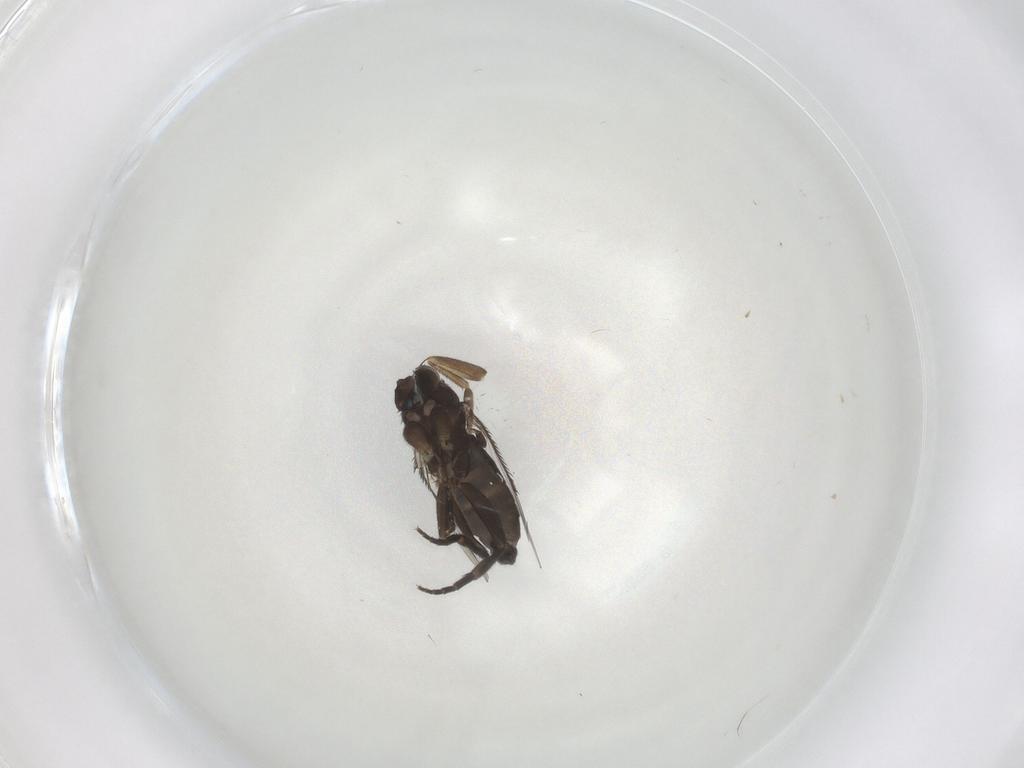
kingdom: Animalia
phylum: Arthropoda
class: Insecta
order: Diptera
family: Phoridae
